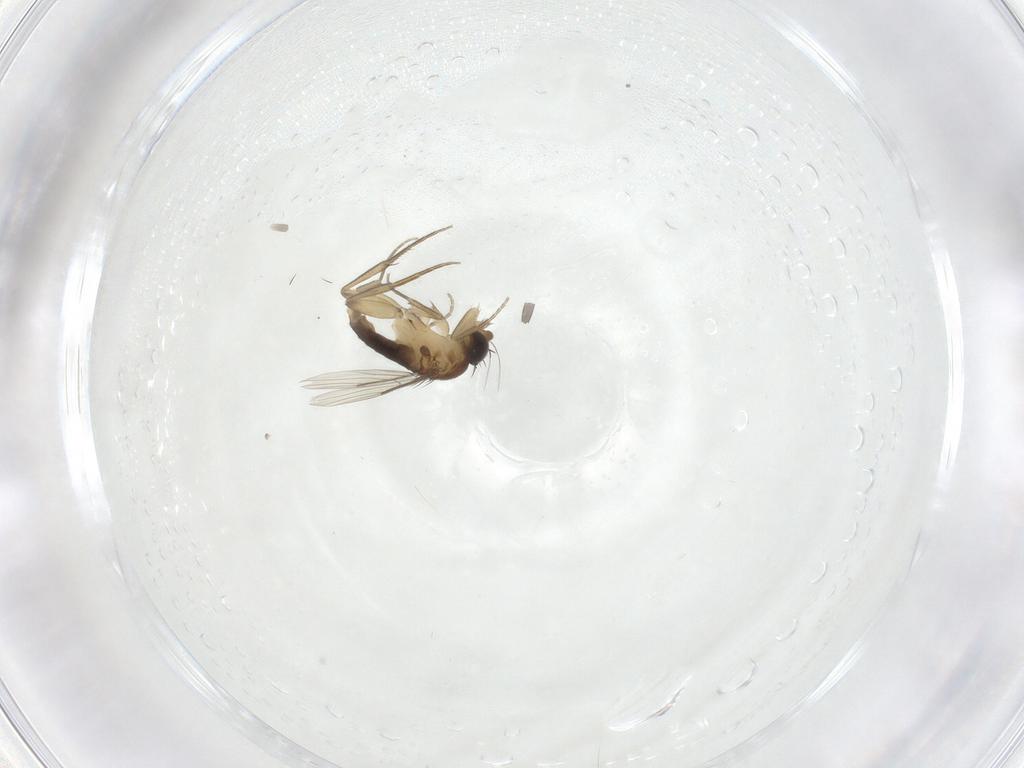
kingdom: Animalia
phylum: Arthropoda
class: Insecta
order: Diptera
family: Phoridae
